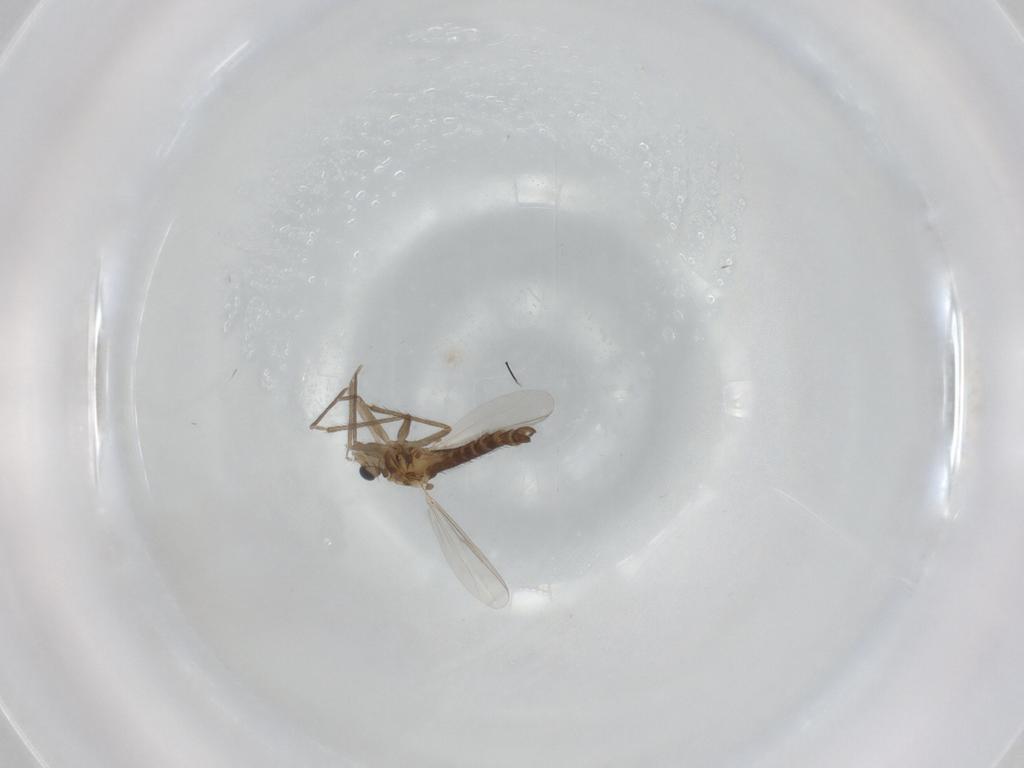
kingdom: Animalia
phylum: Arthropoda
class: Insecta
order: Diptera
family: Chironomidae
